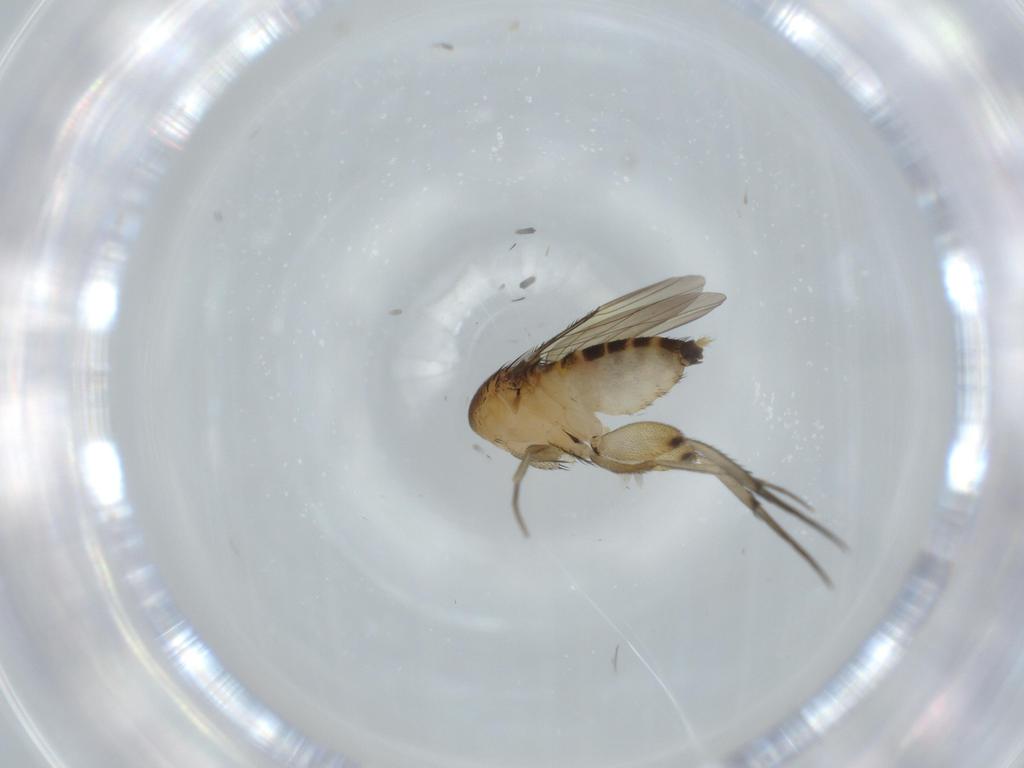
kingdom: Animalia
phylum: Arthropoda
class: Insecta
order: Diptera
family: Phoridae
